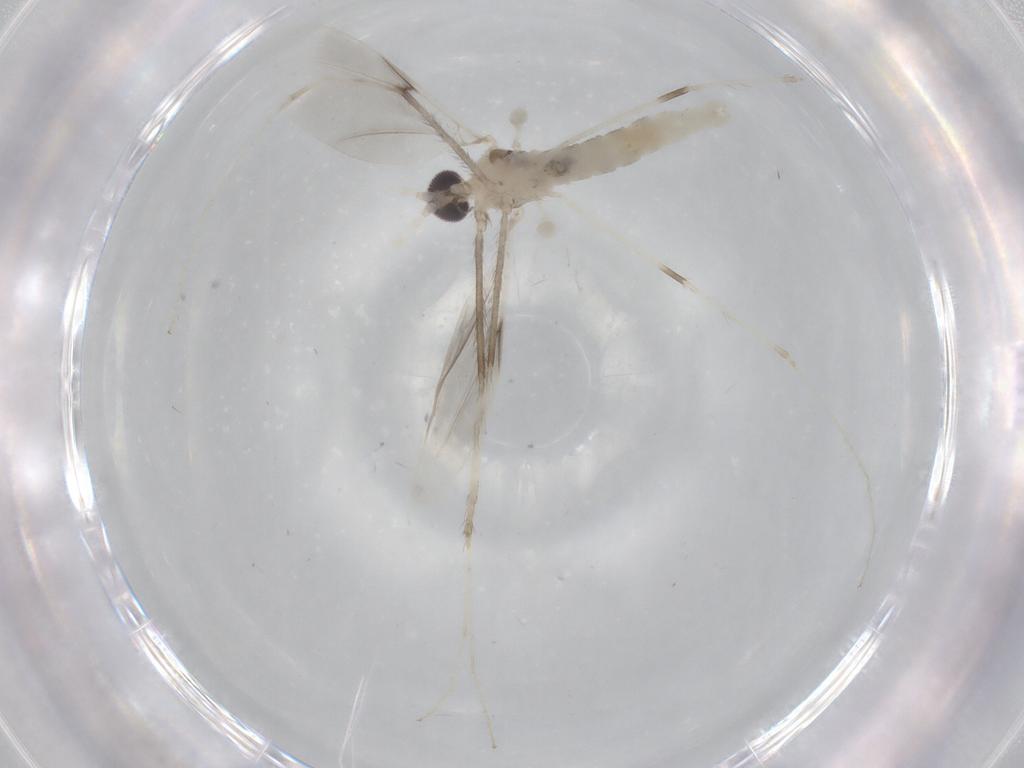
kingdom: Animalia
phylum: Arthropoda
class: Insecta
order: Diptera
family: Cecidomyiidae
